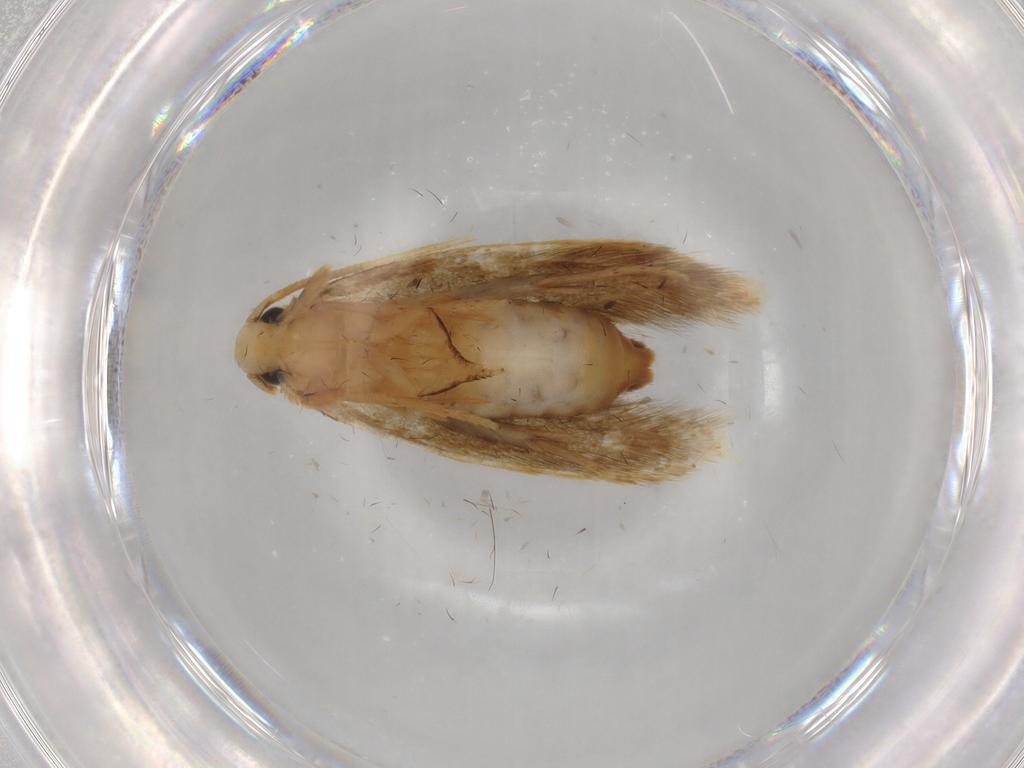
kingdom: Animalia
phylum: Arthropoda
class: Insecta
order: Lepidoptera
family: Tineidae
